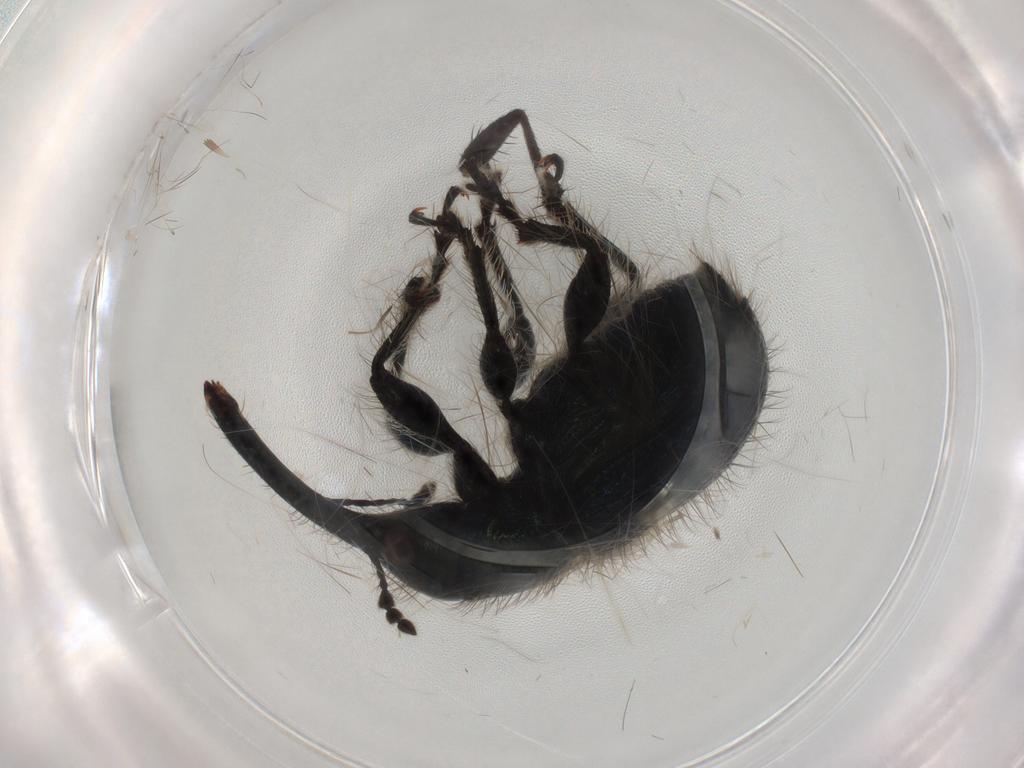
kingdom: Animalia
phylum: Arthropoda
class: Insecta
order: Coleoptera
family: Attelabidae
